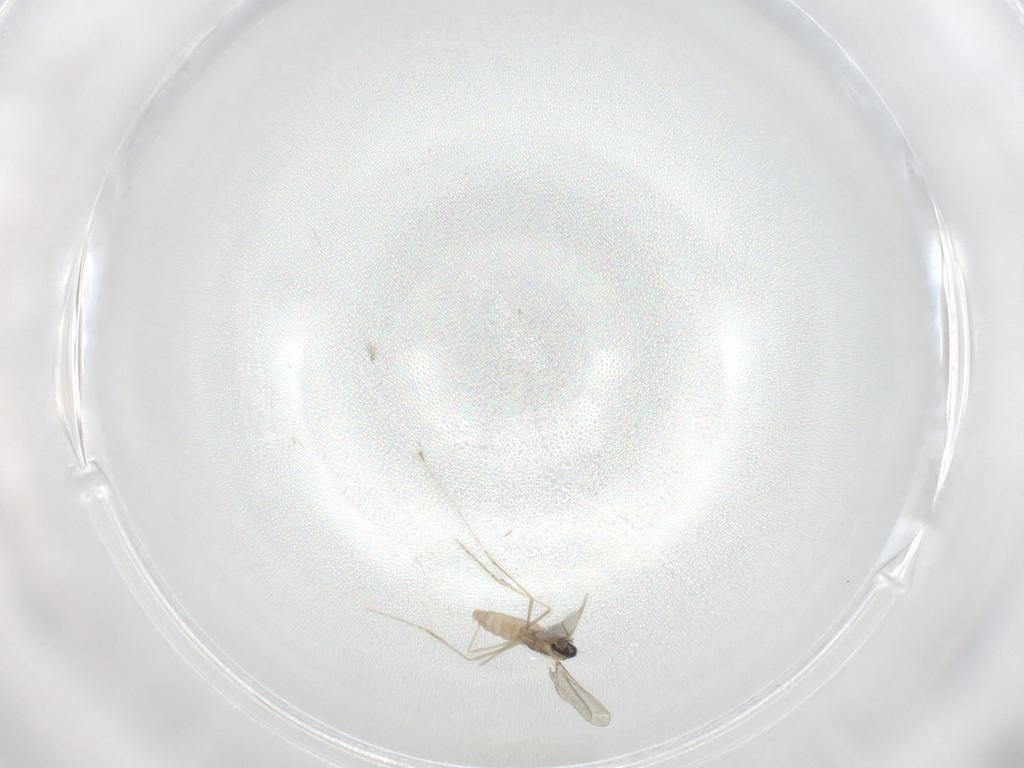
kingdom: Animalia
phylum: Arthropoda
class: Insecta
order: Diptera
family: Cecidomyiidae
